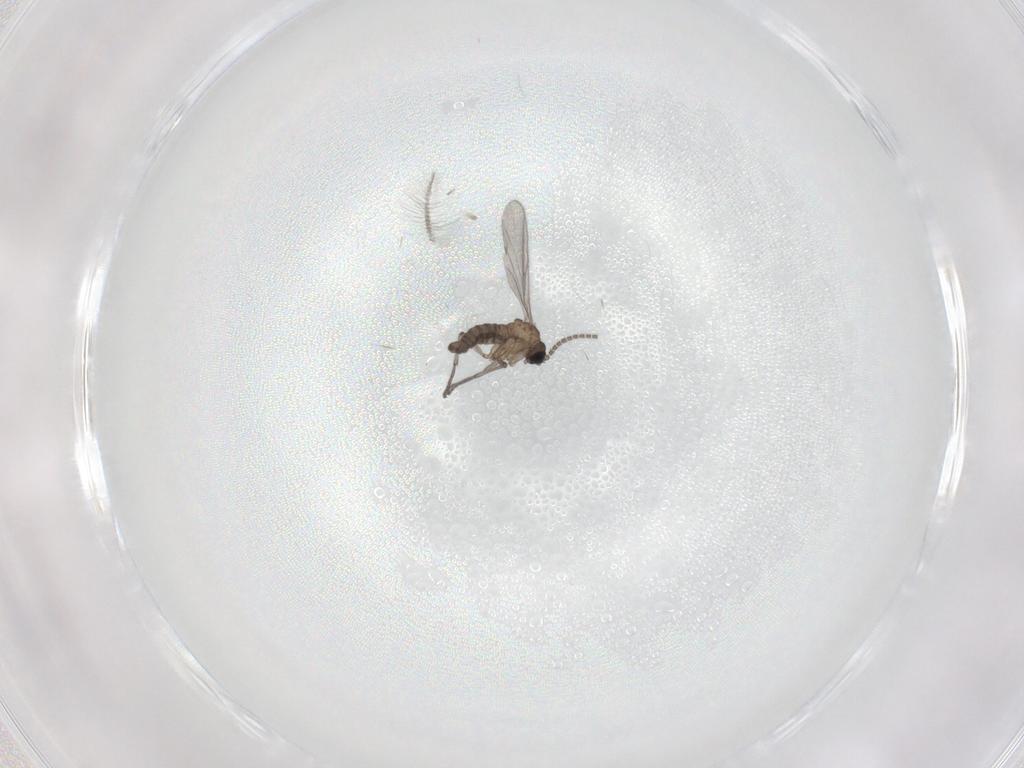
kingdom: Animalia
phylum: Arthropoda
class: Insecta
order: Diptera
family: Sciaridae
